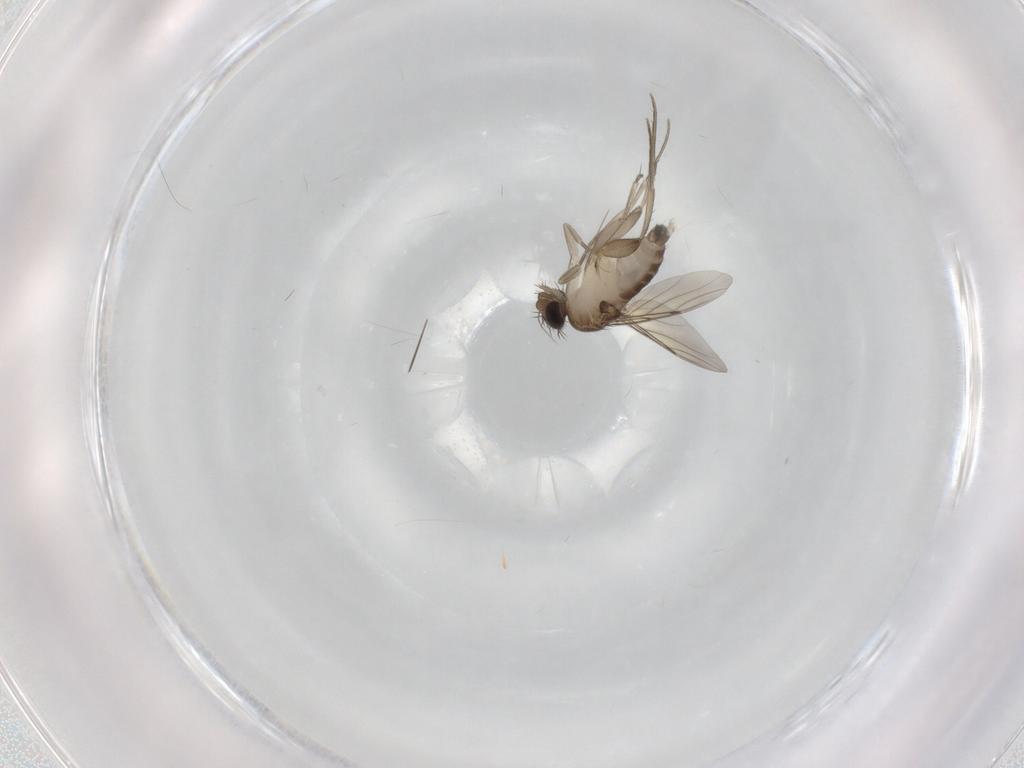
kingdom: Animalia
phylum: Arthropoda
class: Insecta
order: Diptera
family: Phoridae
